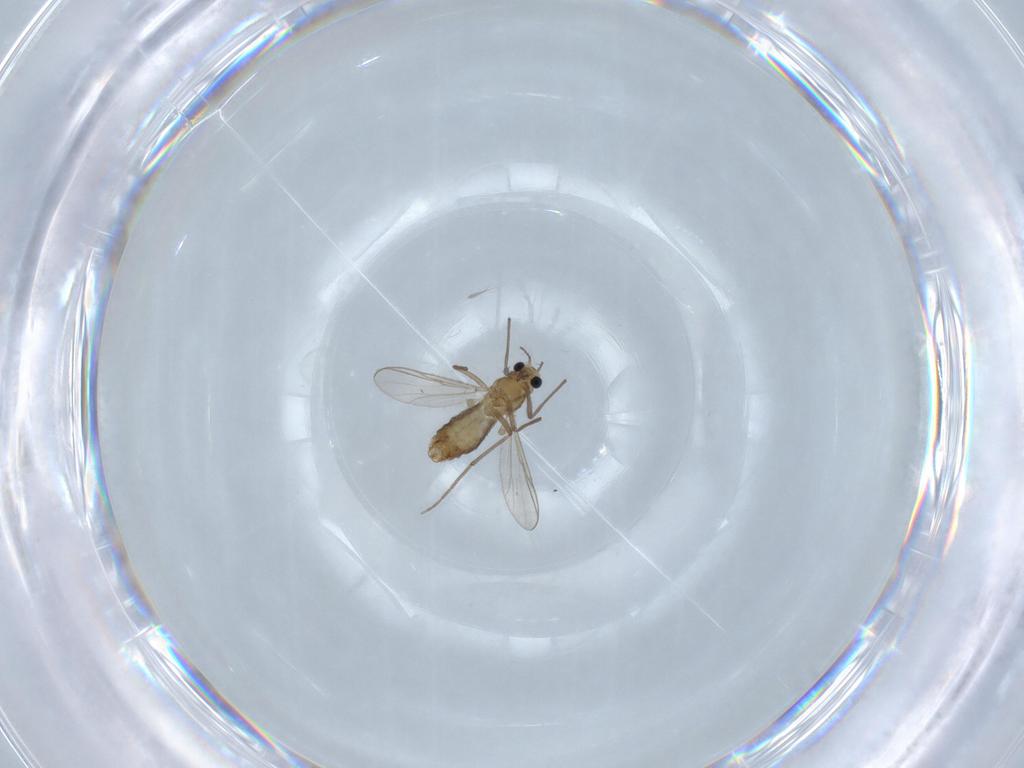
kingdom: Animalia
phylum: Arthropoda
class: Insecta
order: Diptera
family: Chironomidae
